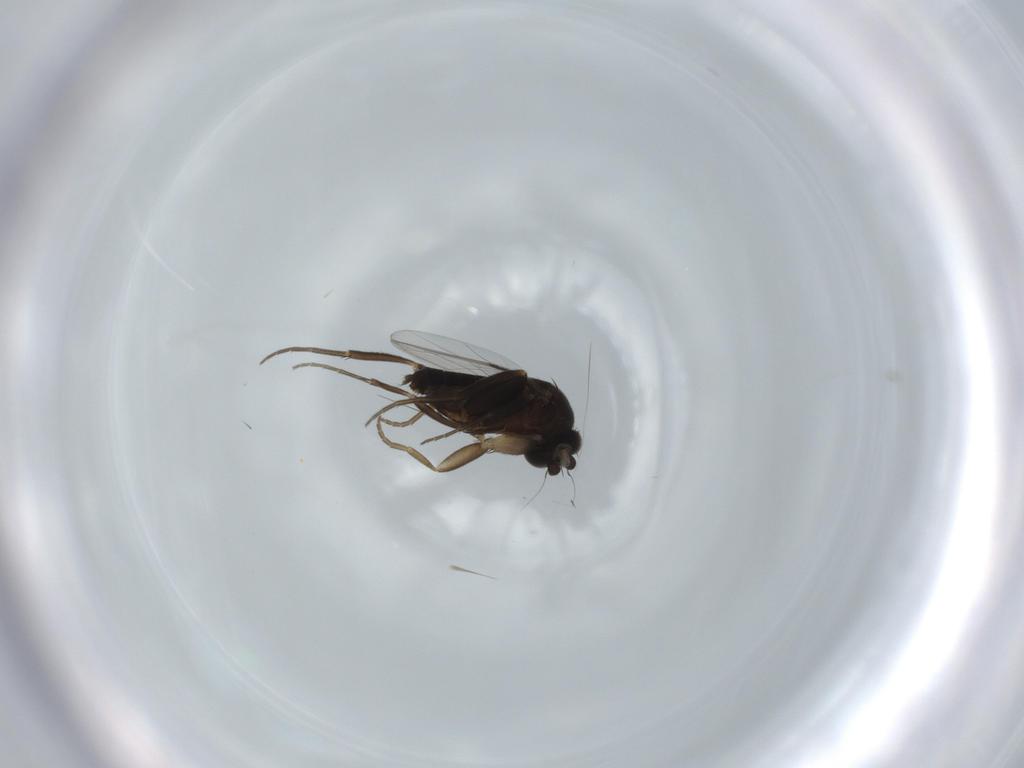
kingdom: Animalia
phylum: Arthropoda
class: Insecta
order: Diptera
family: Phoridae
